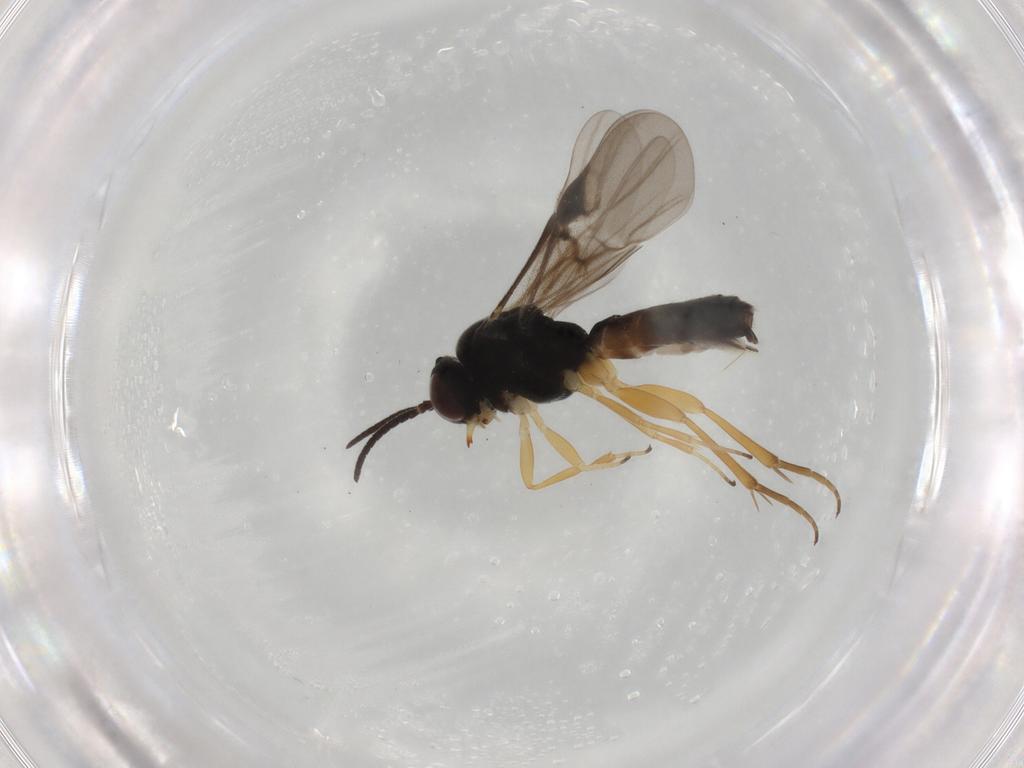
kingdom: Animalia
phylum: Arthropoda
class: Insecta
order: Hymenoptera
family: Braconidae
